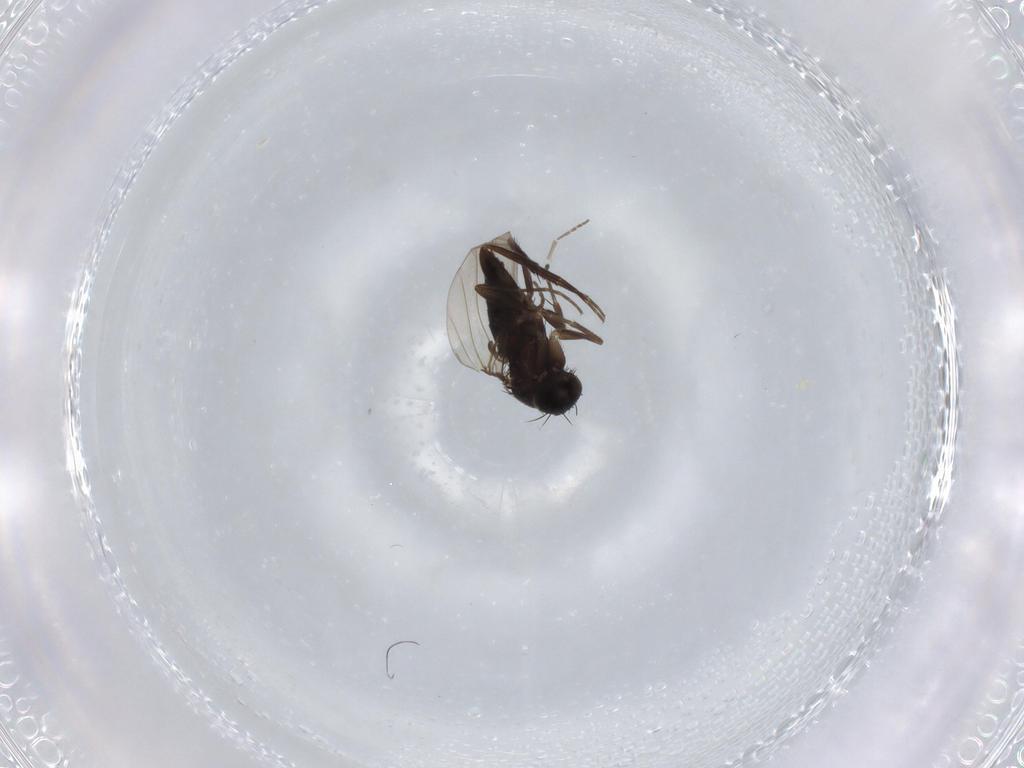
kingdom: Animalia
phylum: Arthropoda
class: Insecta
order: Diptera
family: Phoridae
